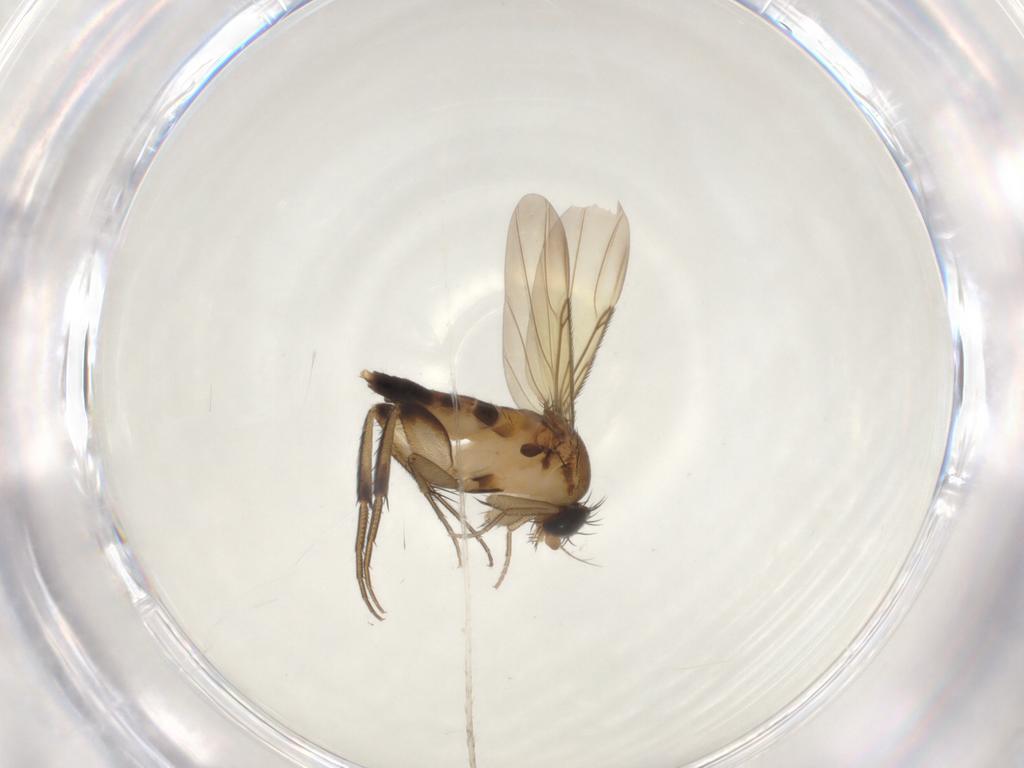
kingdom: Animalia
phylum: Arthropoda
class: Insecta
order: Diptera
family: Phoridae
